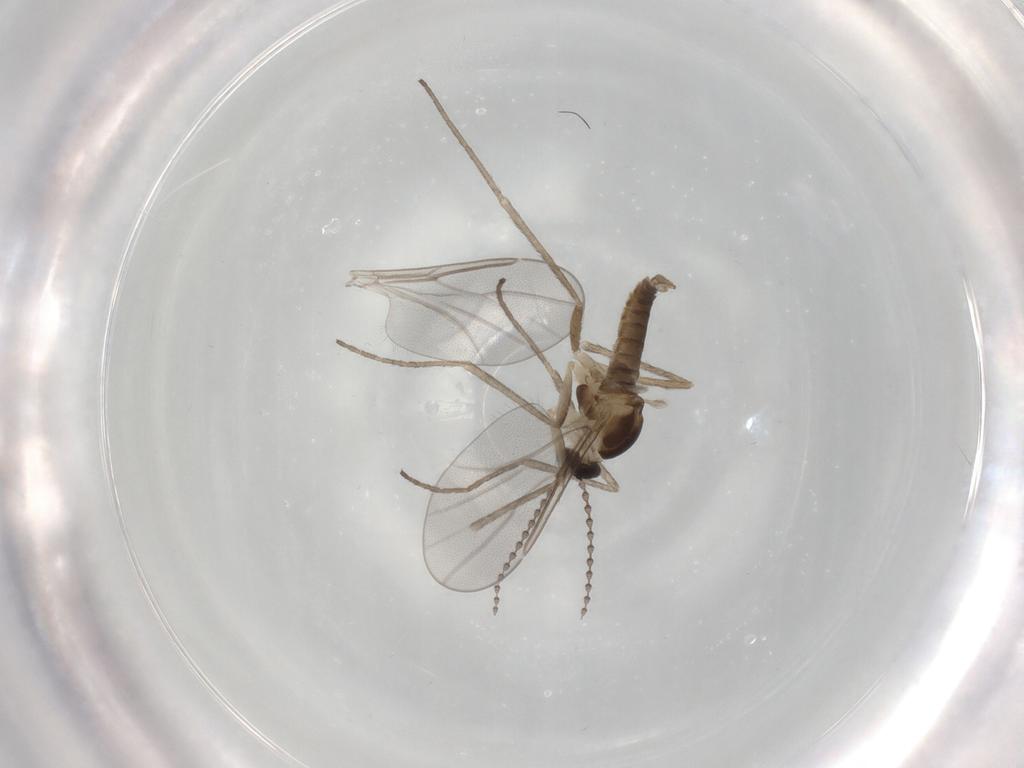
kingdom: Animalia
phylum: Arthropoda
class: Insecta
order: Diptera
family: Cecidomyiidae
